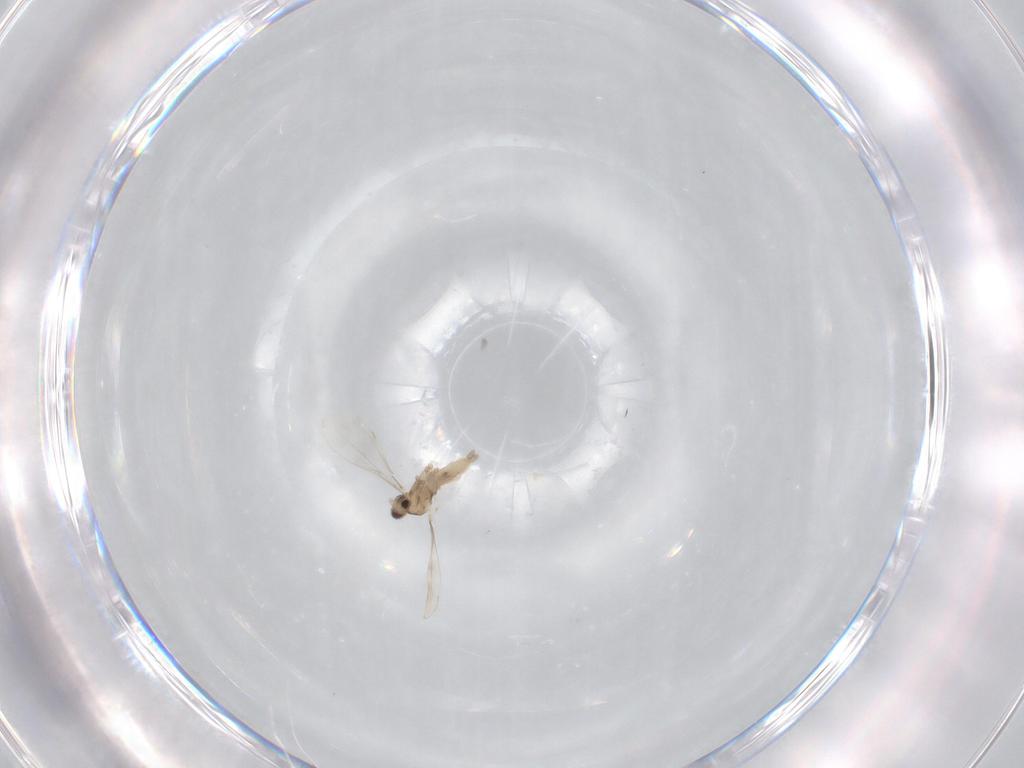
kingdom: Animalia
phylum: Arthropoda
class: Insecta
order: Diptera
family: Cecidomyiidae
